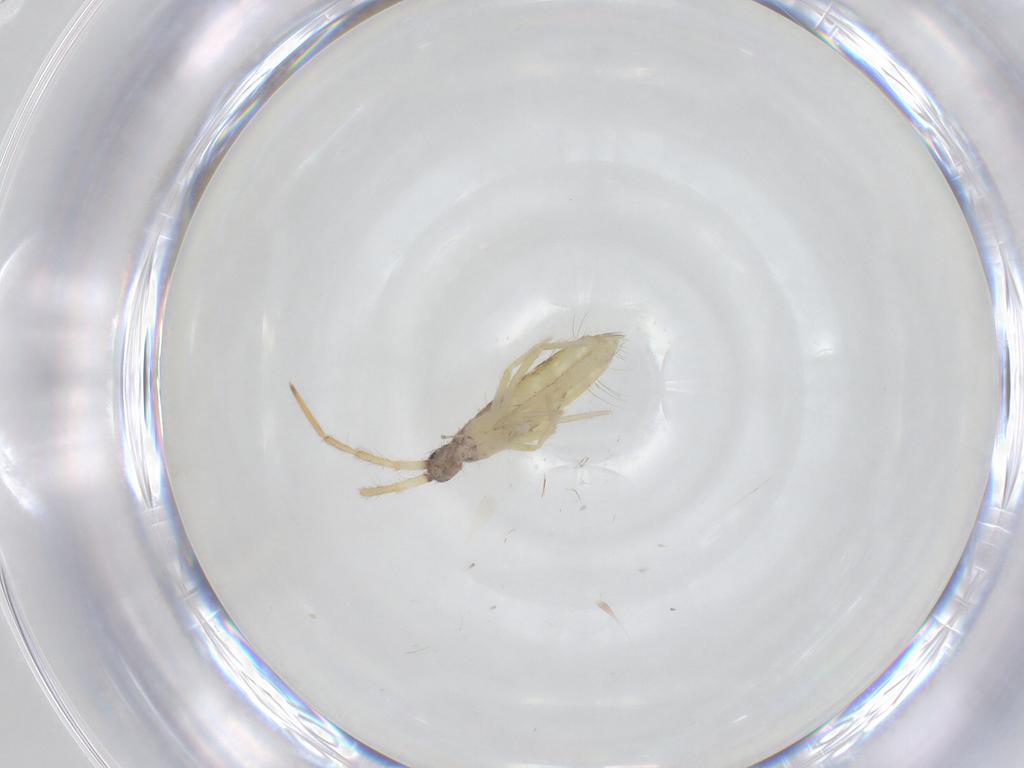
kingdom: Animalia
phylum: Arthropoda
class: Collembola
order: Entomobryomorpha
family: Entomobryidae
